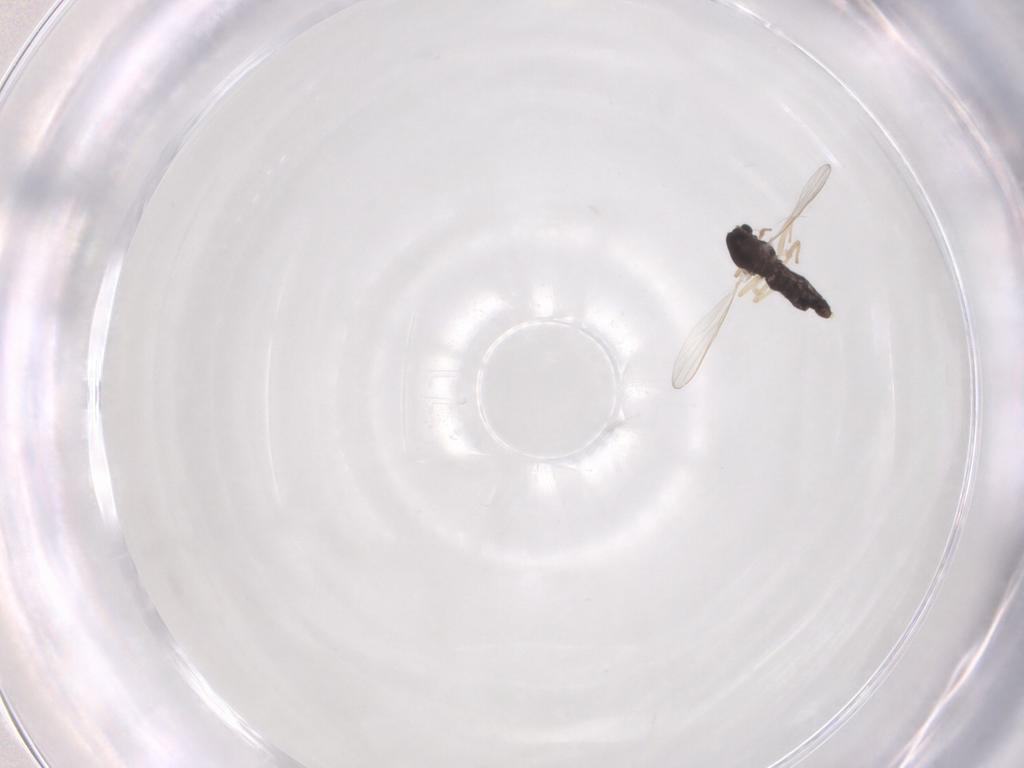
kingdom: Animalia
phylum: Arthropoda
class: Insecta
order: Diptera
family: Chironomidae
